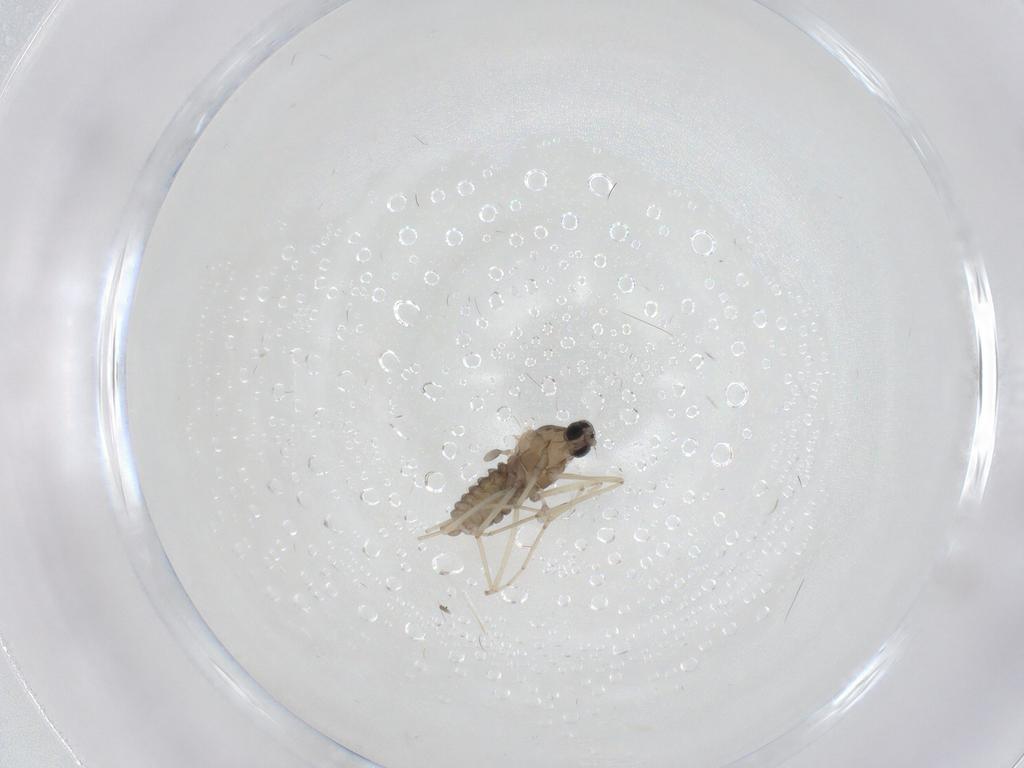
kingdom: Animalia
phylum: Arthropoda
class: Insecta
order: Diptera
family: Cecidomyiidae
